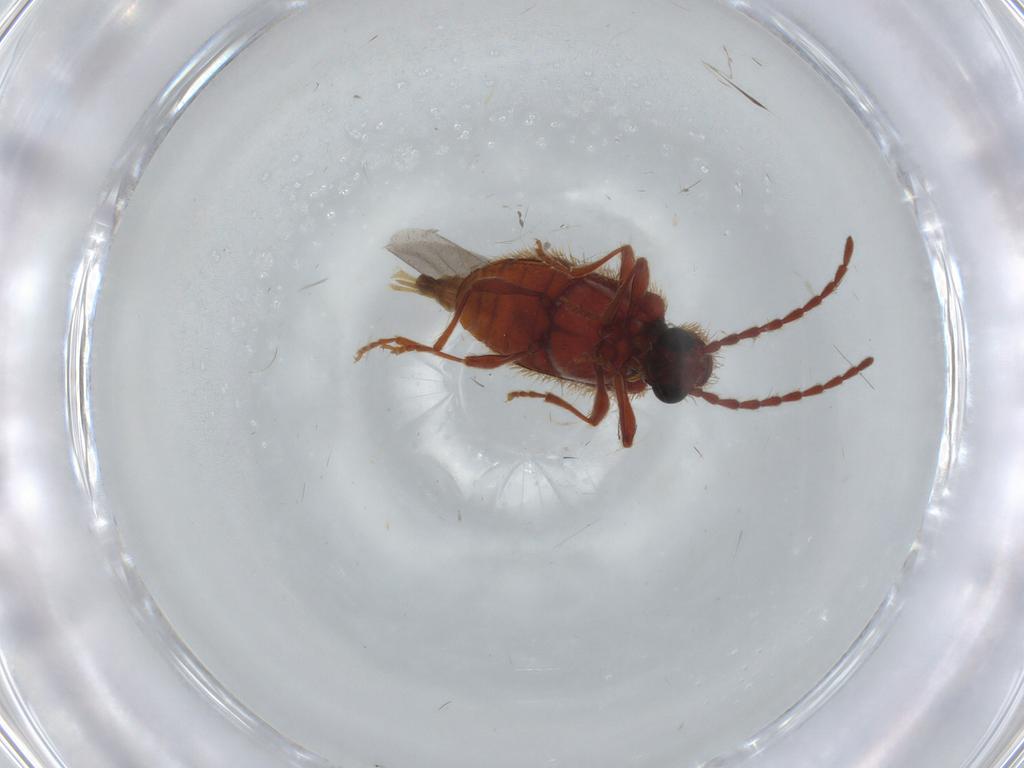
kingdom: Animalia
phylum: Arthropoda
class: Insecta
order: Coleoptera
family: Ptinidae
